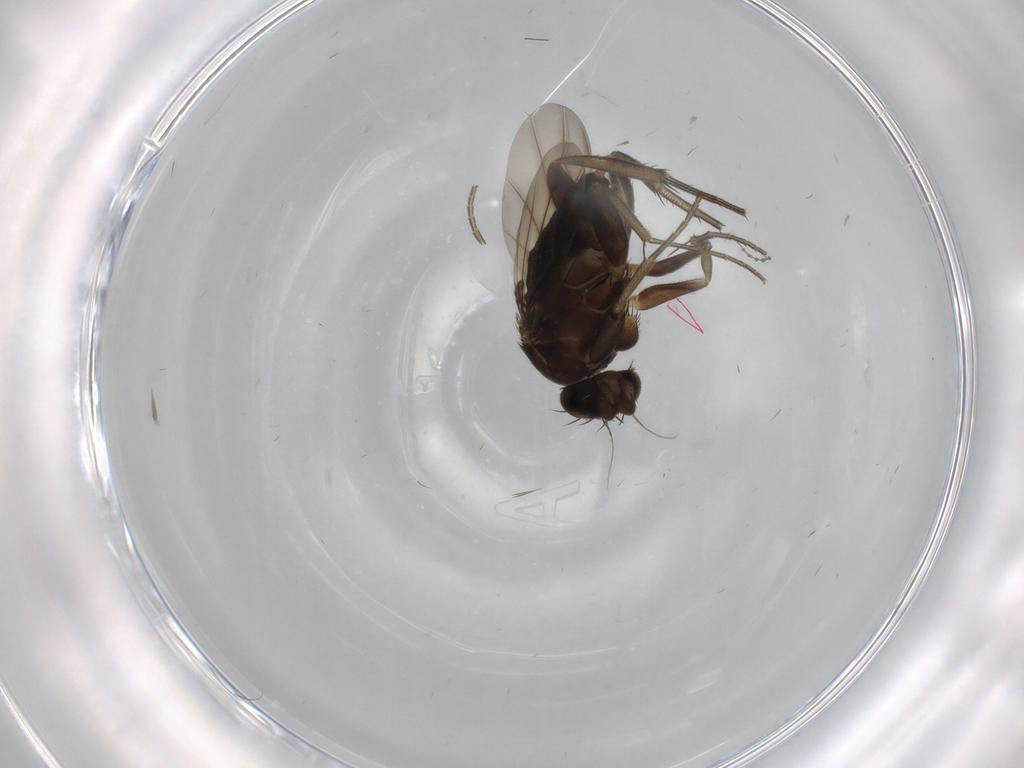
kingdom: Animalia
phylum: Arthropoda
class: Insecta
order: Diptera
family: Phoridae
